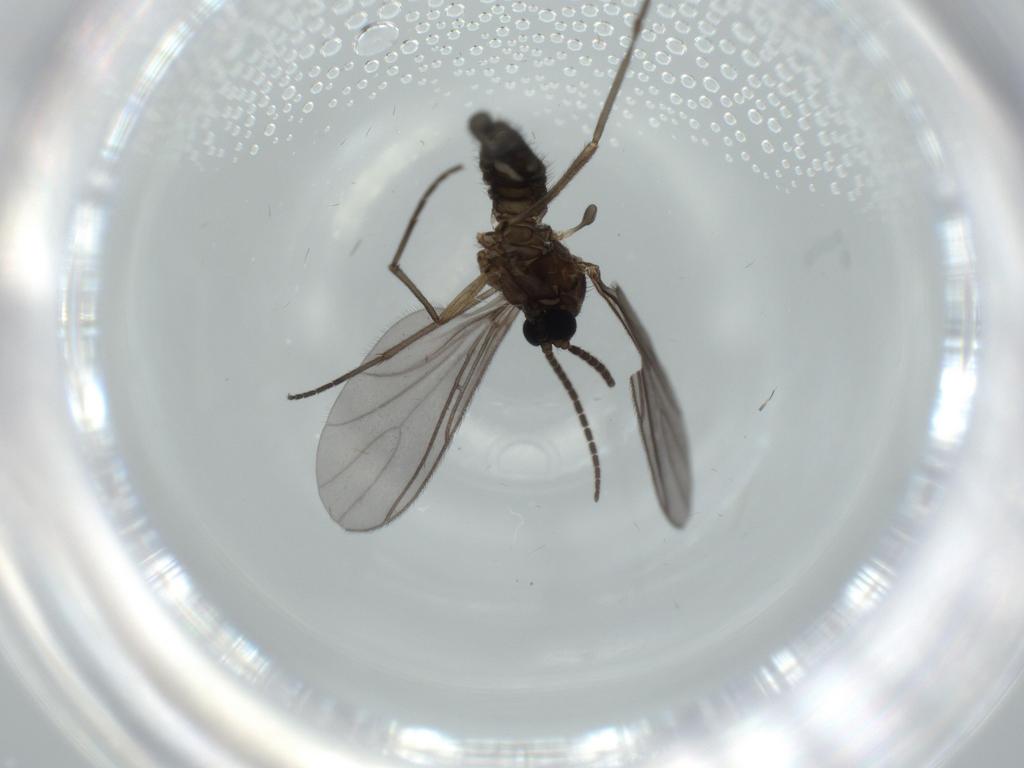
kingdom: Animalia
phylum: Arthropoda
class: Insecta
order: Diptera
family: Sciaridae
